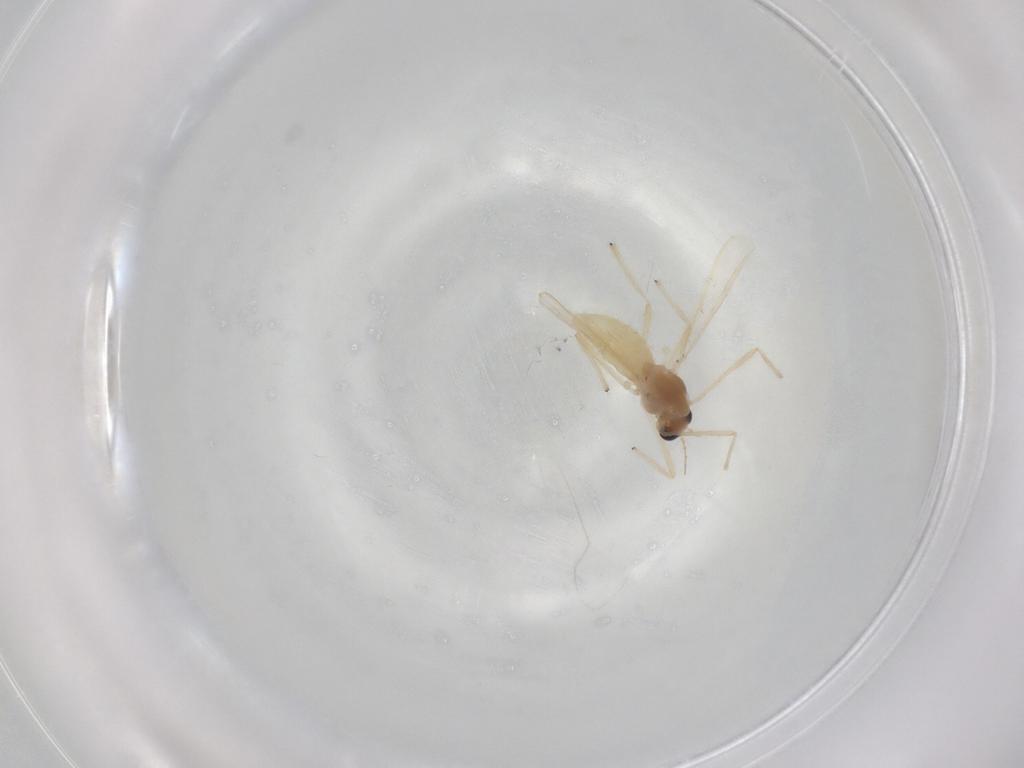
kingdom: Animalia
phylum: Arthropoda
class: Insecta
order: Diptera
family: Chironomidae
